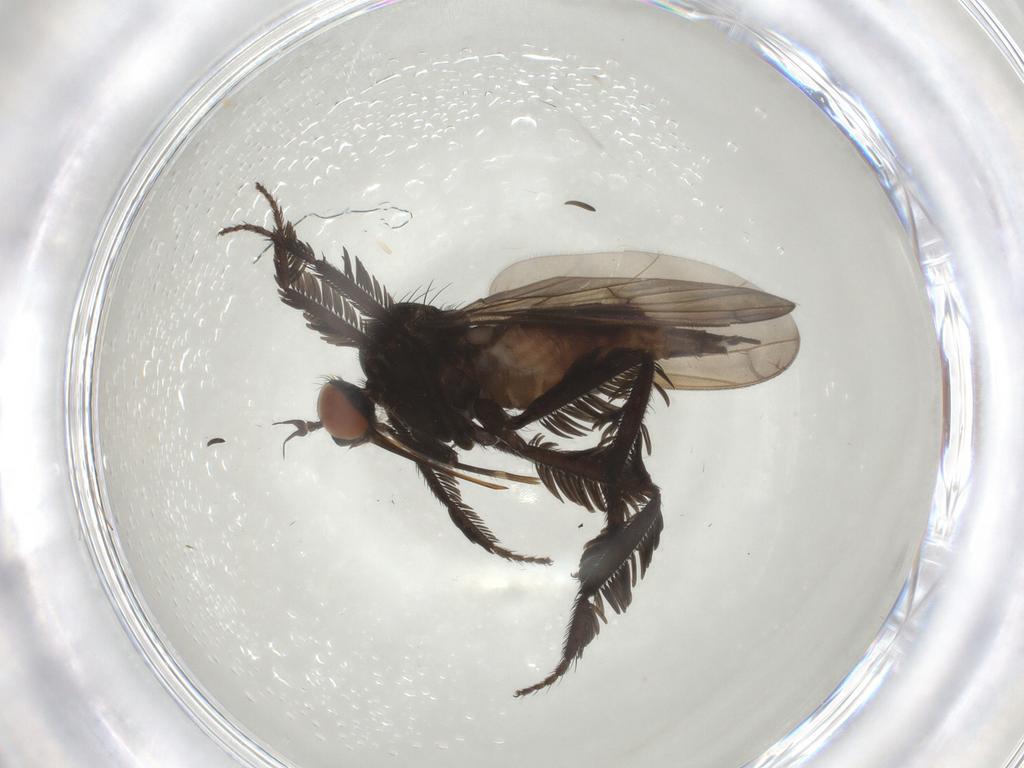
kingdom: Animalia
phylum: Arthropoda
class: Insecta
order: Diptera
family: Empididae
